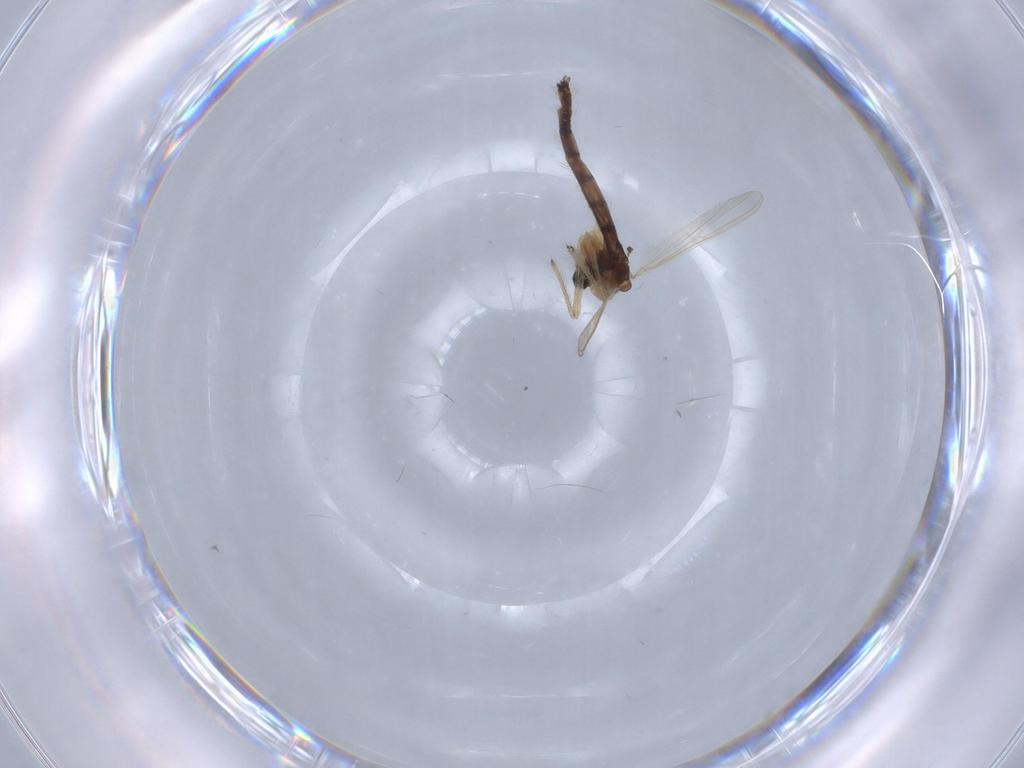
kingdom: Animalia
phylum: Arthropoda
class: Insecta
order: Diptera
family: Chironomidae
